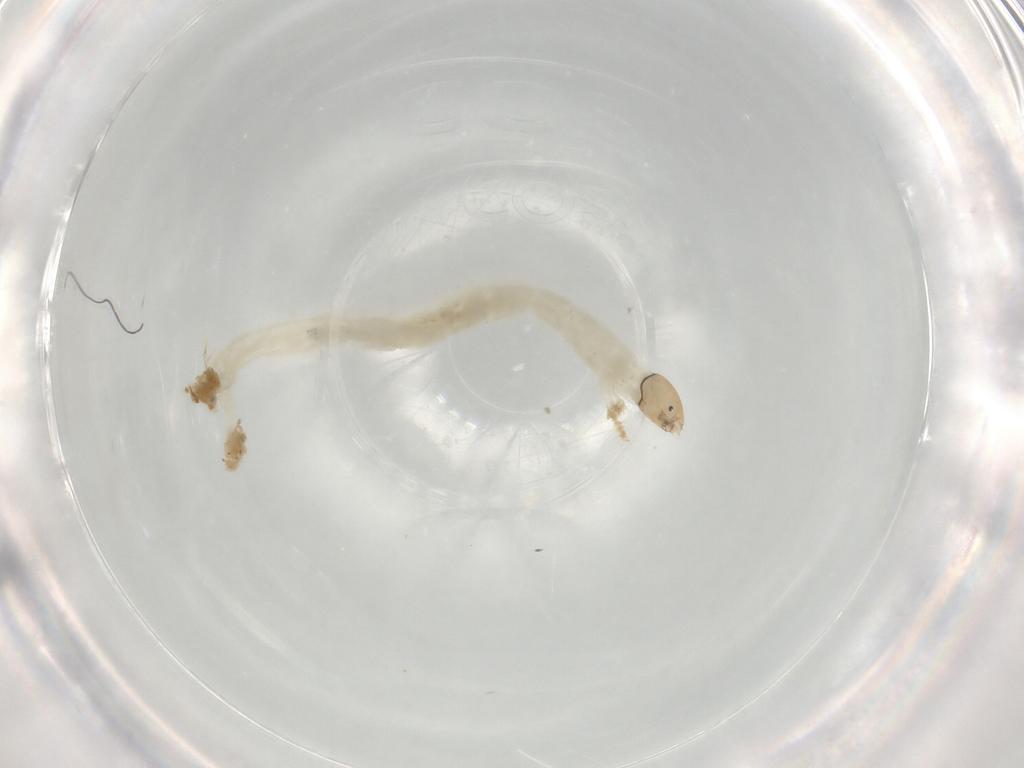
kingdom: Animalia
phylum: Arthropoda
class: Insecta
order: Diptera
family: Chironomidae
